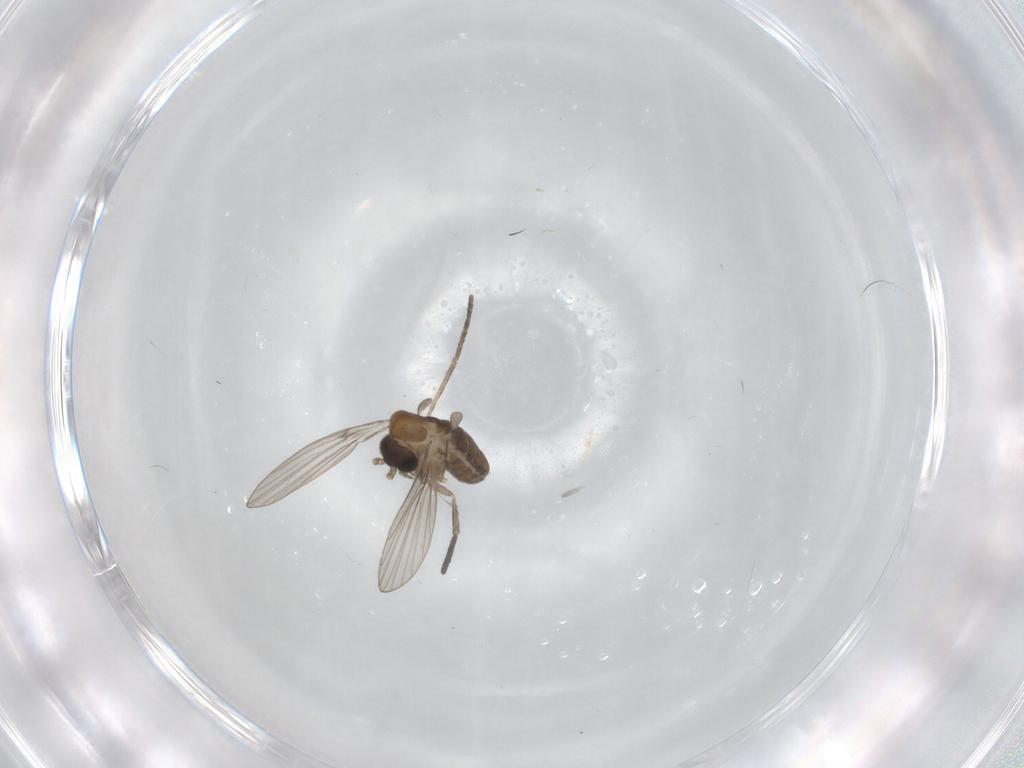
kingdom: Animalia
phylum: Arthropoda
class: Insecta
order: Diptera
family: Psychodidae
